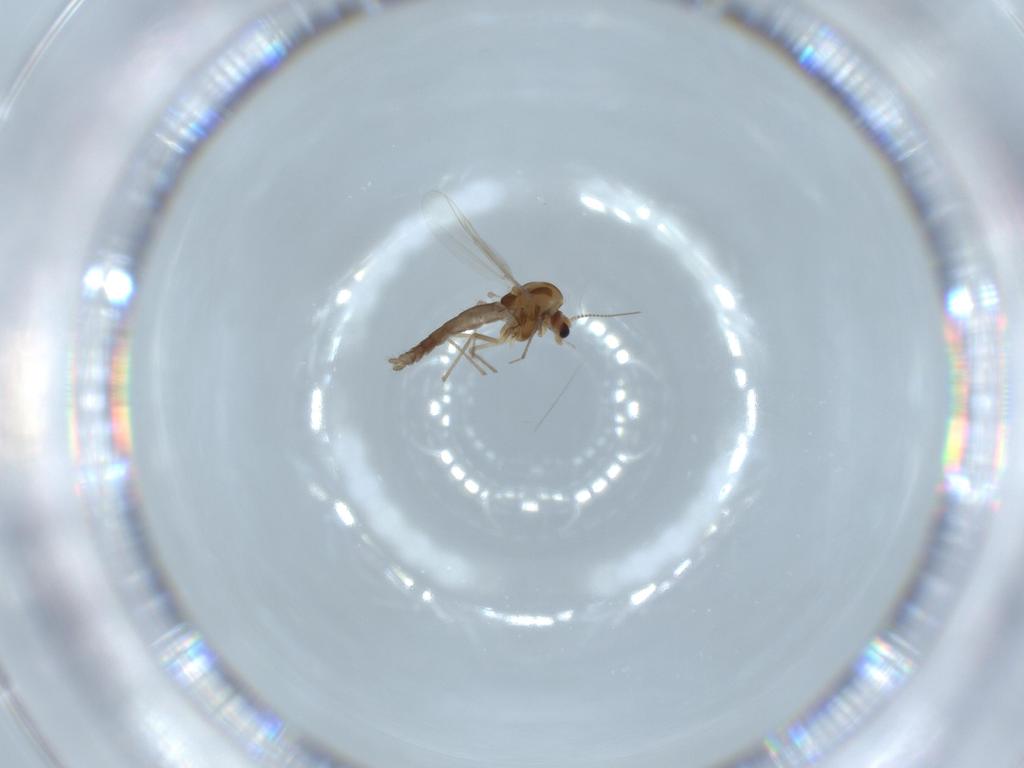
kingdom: Animalia
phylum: Arthropoda
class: Insecta
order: Diptera
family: Chironomidae
